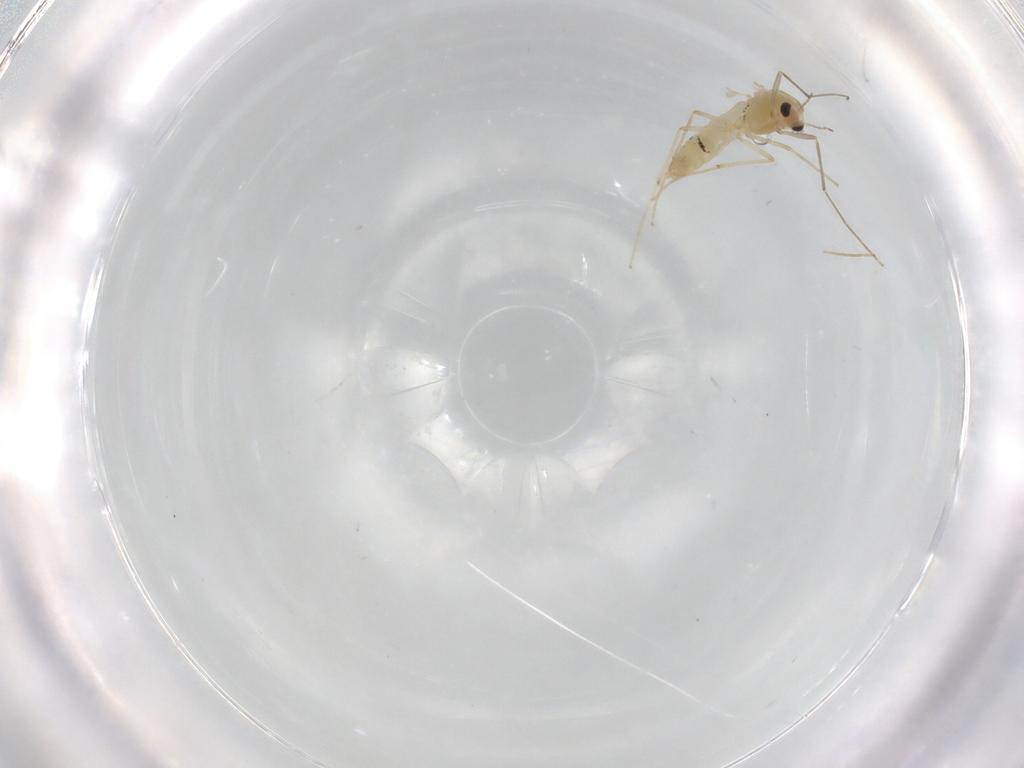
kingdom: Animalia
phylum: Arthropoda
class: Insecta
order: Diptera
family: Chironomidae
